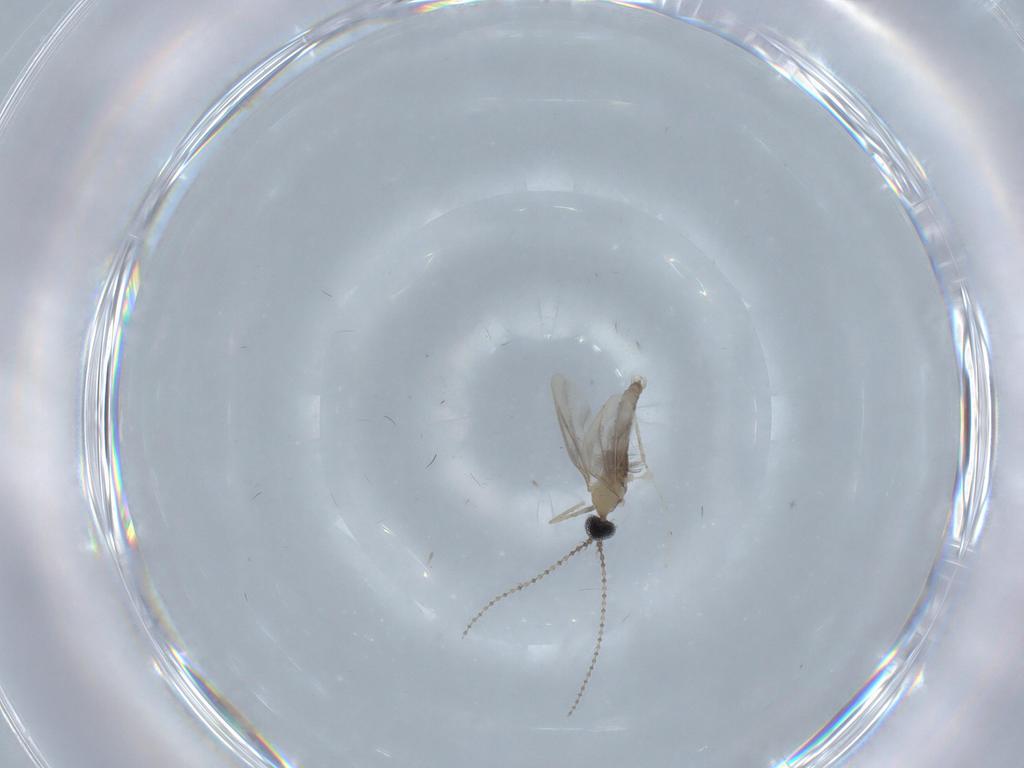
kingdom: Animalia
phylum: Arthropoda
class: Insecta
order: Diptera
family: Cecidomyiidae
